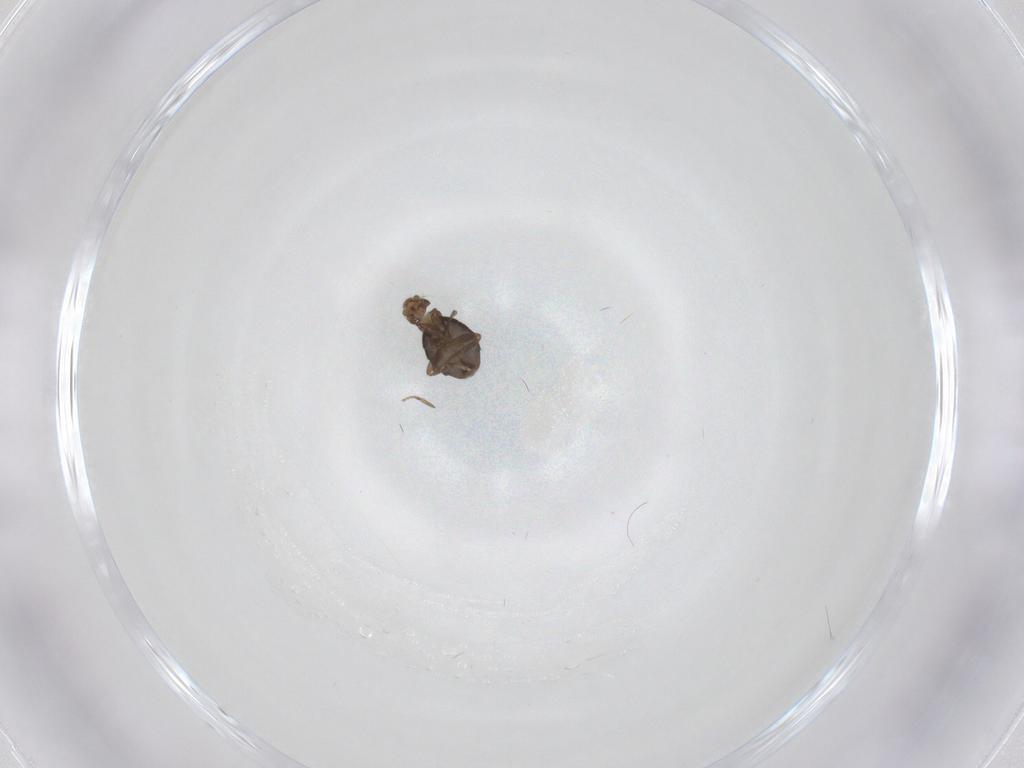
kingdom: Animalia
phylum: Arthropoda
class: Insecta
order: Diptera
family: Phoridae
